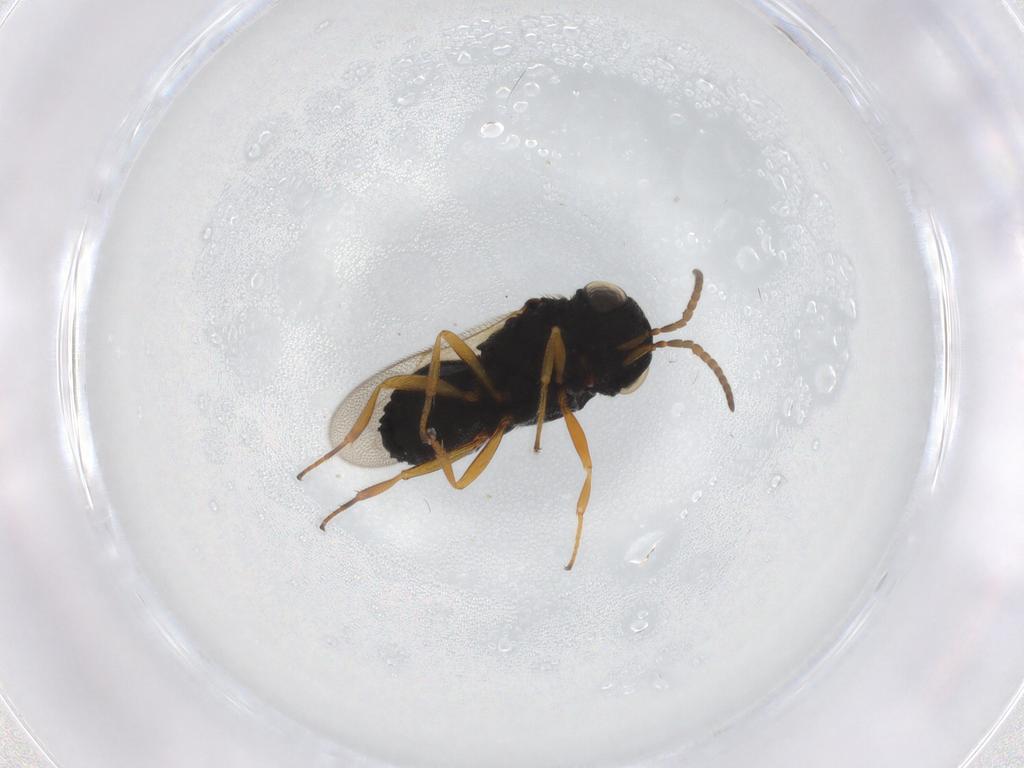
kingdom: Animalia
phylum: Arthropoda
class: Insecta
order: Hymenoptera
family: Scelionidae
